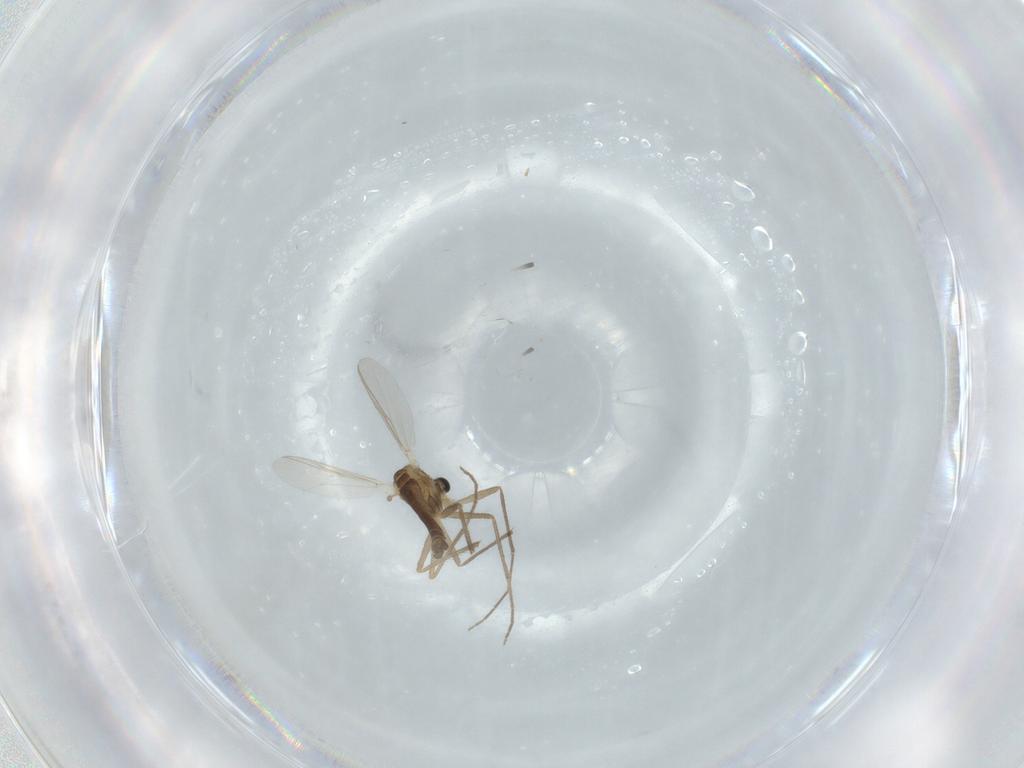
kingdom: Animalia
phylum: Arthropoda
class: Insecta
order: Diptera
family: Chironomidae
